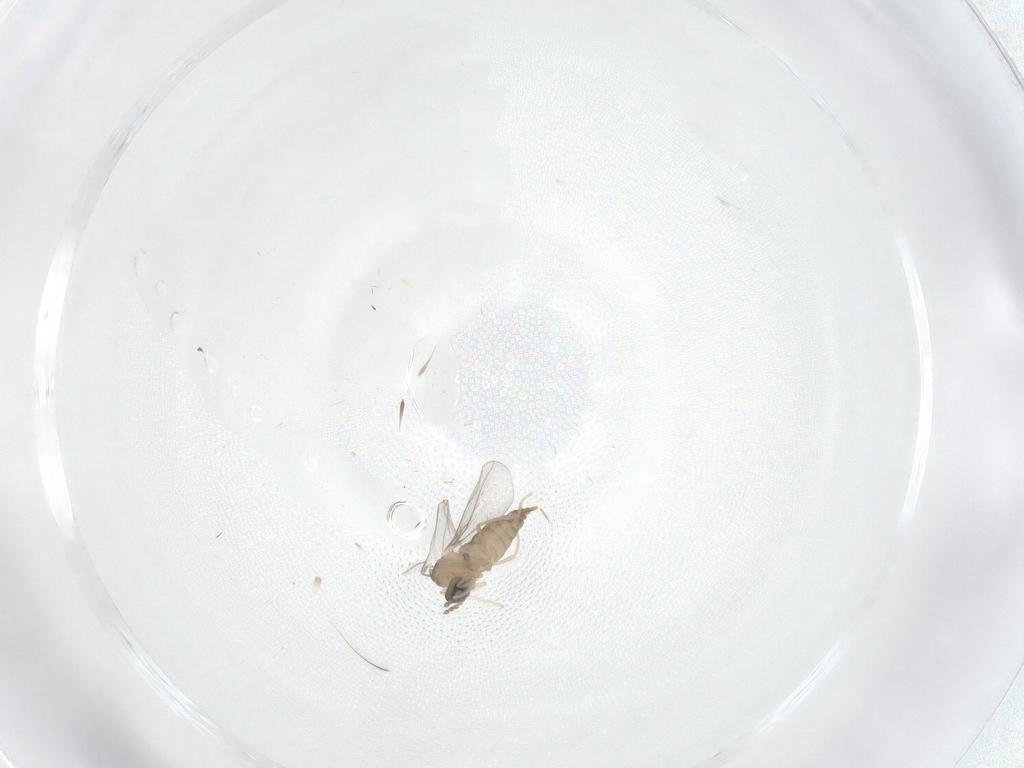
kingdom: Animalia
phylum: Arthropoda
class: Insecta
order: Diptera
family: Cecidomyiidae
